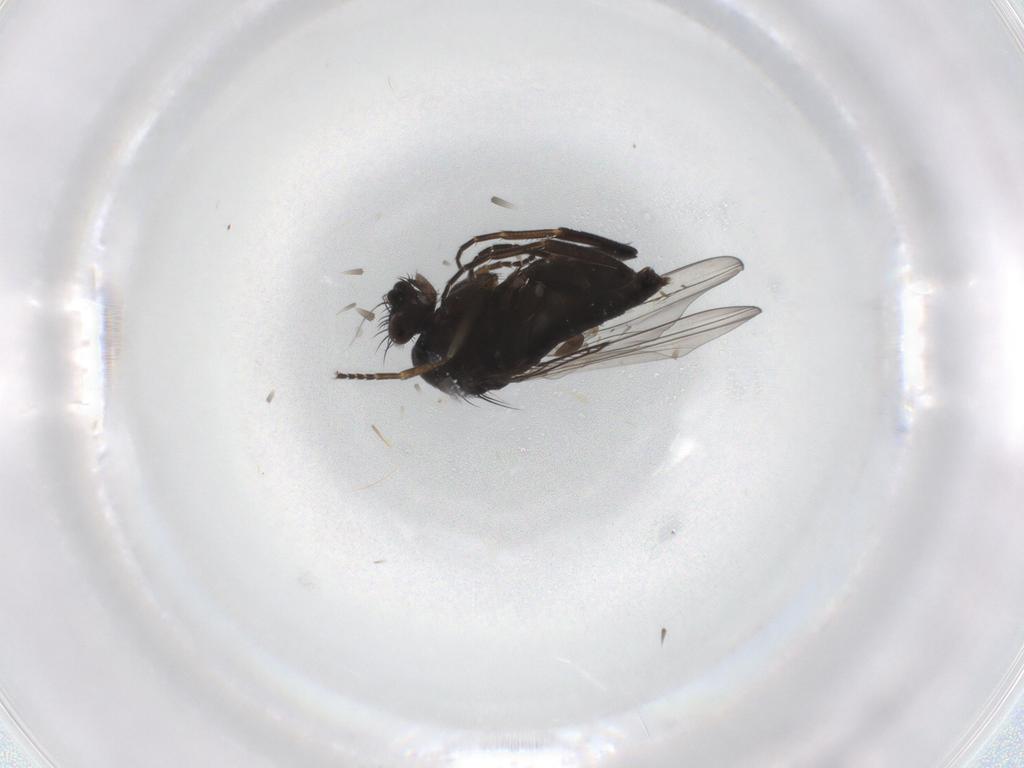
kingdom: Animalia
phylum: Arthropoda
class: Insecta
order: Diptera
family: Phoridae
